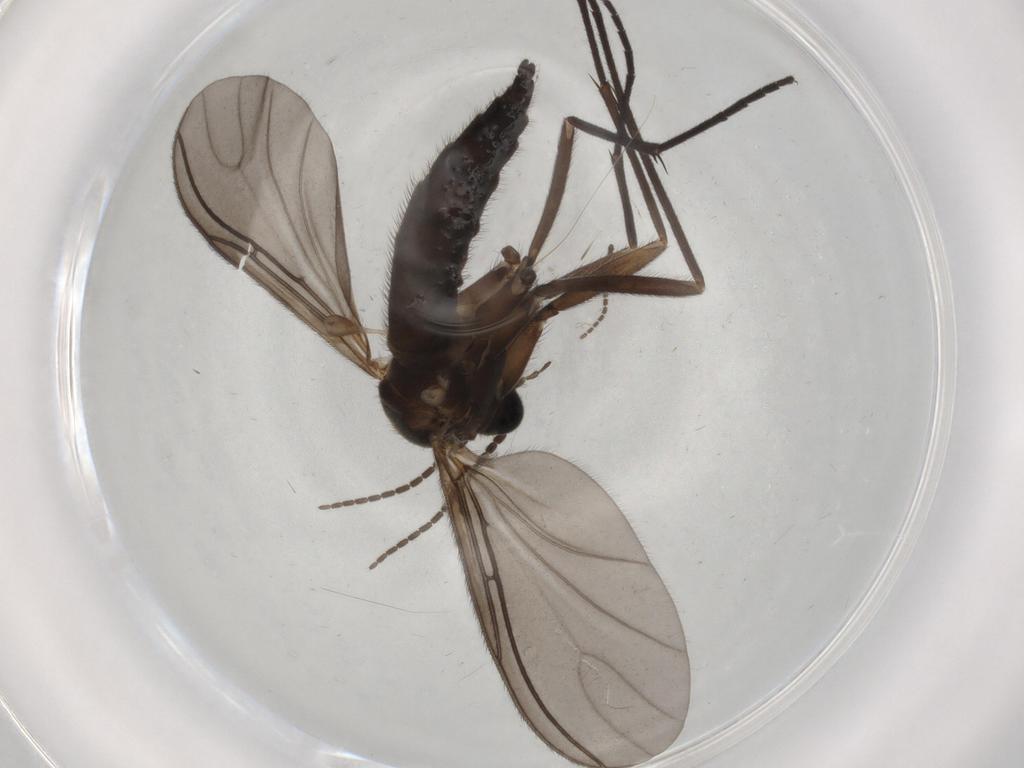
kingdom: Animalia
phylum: Arthropoda
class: Insecta
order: Diptera
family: Sciaridae
